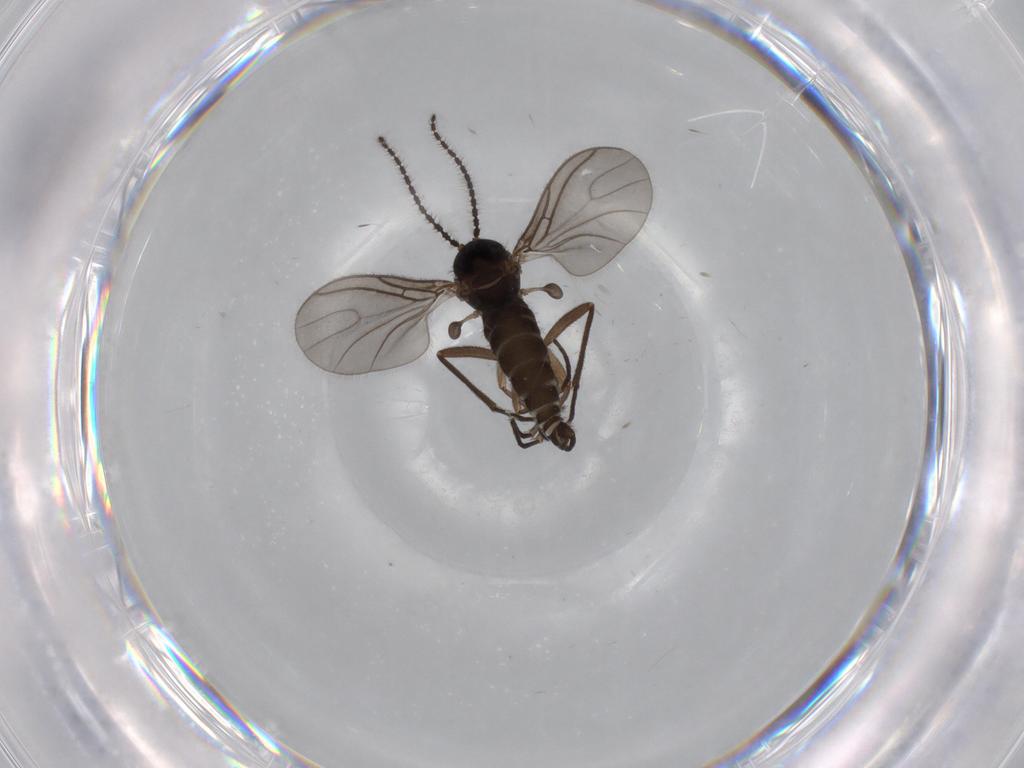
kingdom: Animalia
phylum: Arthropoda
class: Insecta
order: Diptera
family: Sciaridae
